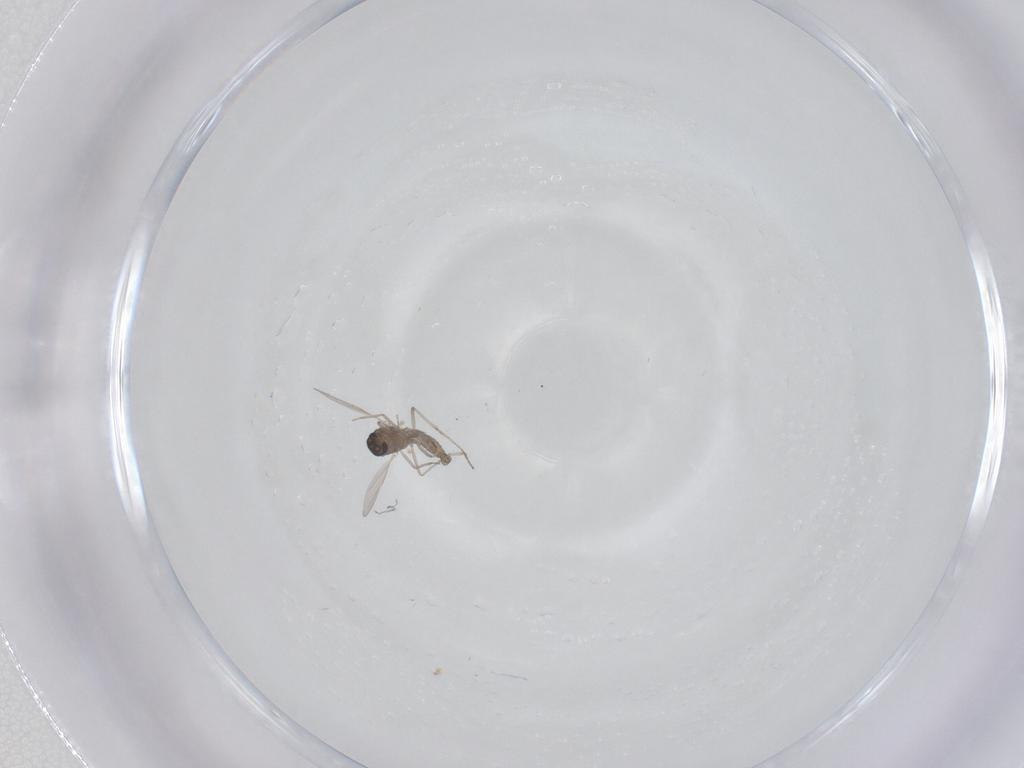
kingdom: Animalia
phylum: Arthropoda
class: Insecta
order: Diptera
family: Ceratopogonidae
